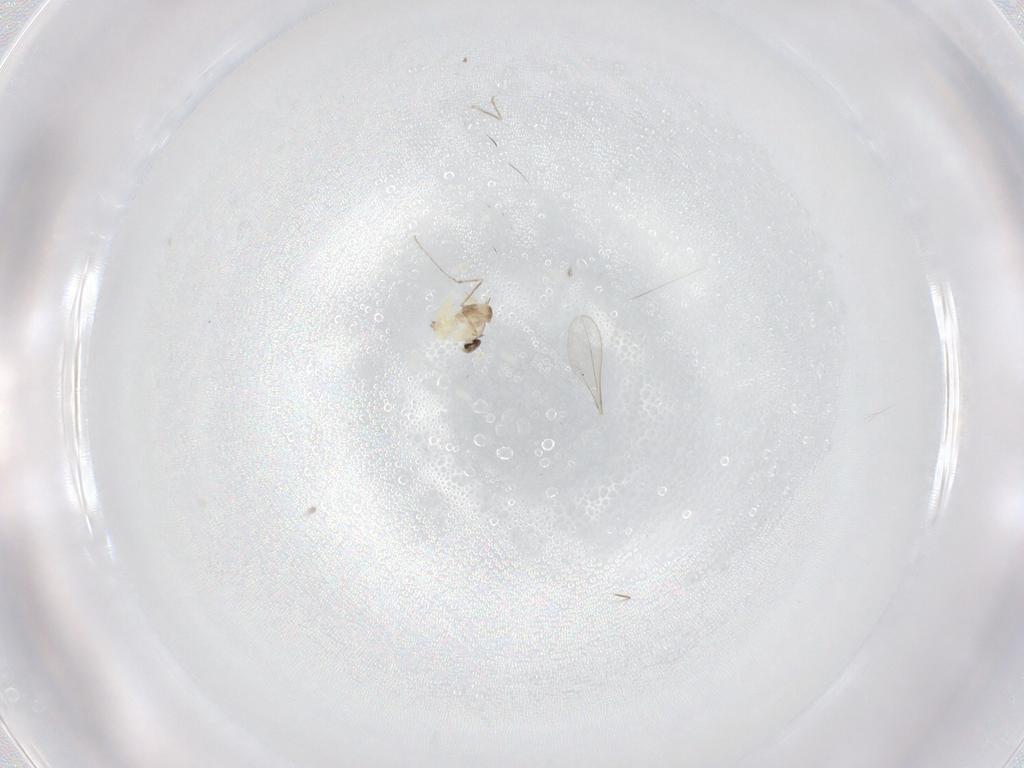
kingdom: Animalia
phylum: Arthropoda
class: Insecta
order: Diptera
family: Cecidomyiidae
